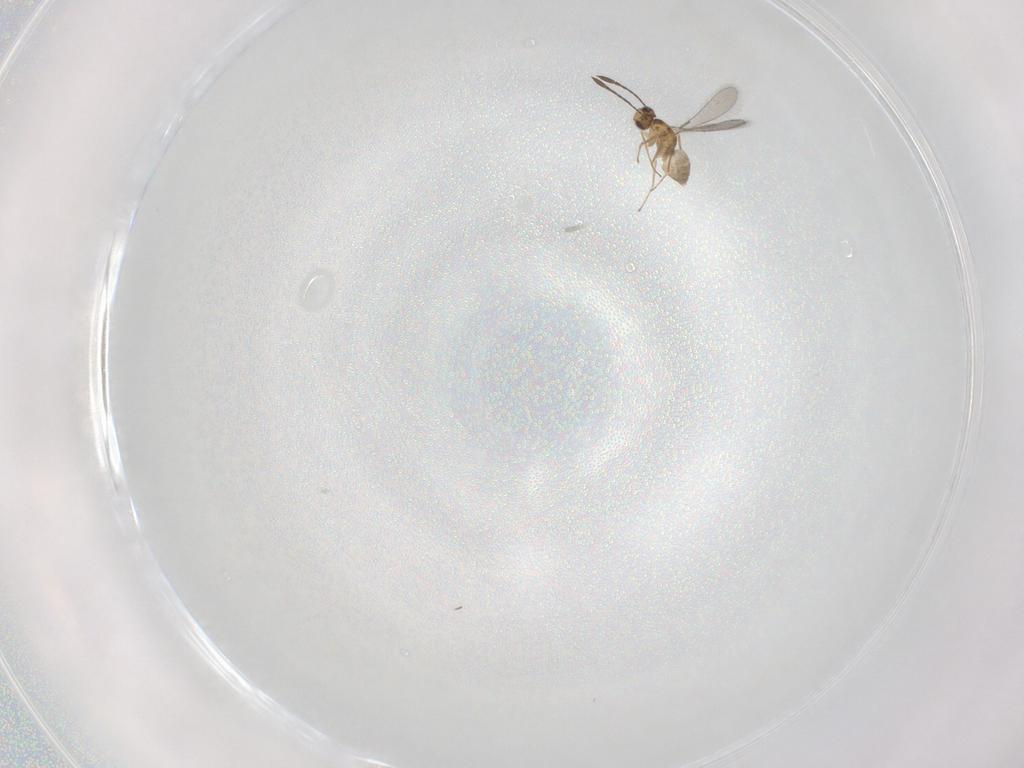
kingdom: Animalia
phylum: Arthropoda
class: Insecta
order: Hymenoptera
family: Mymaridae
